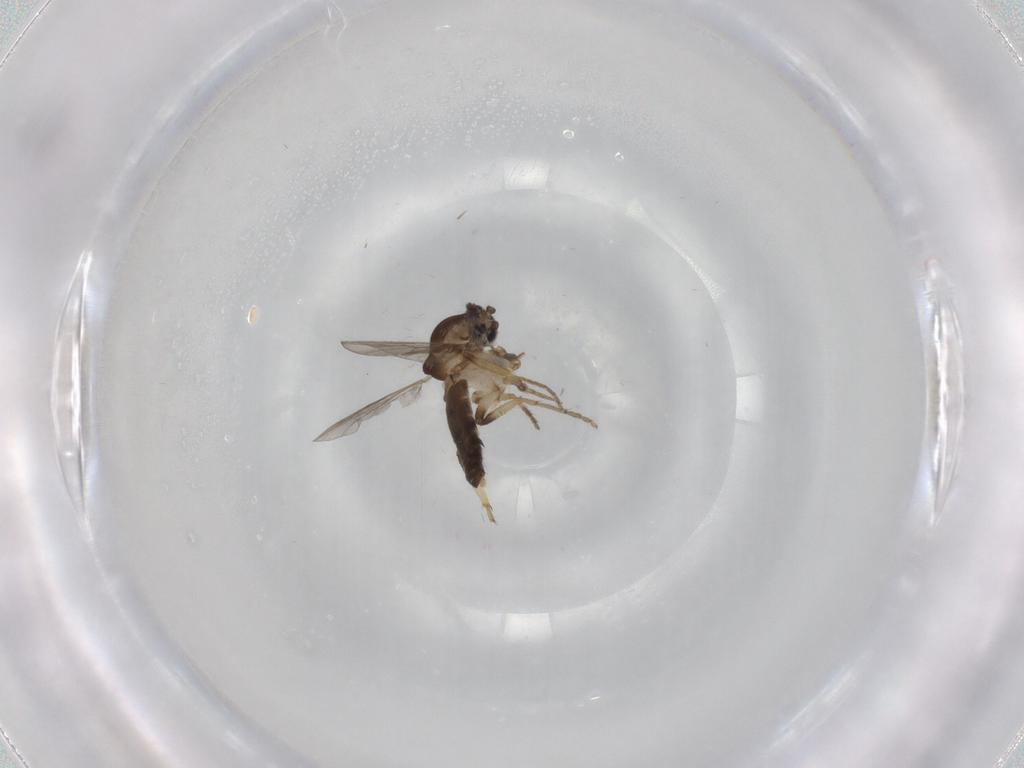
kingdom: Animalia
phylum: Arthropoda
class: Insecta
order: Diptera
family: Ceratopogonidae
